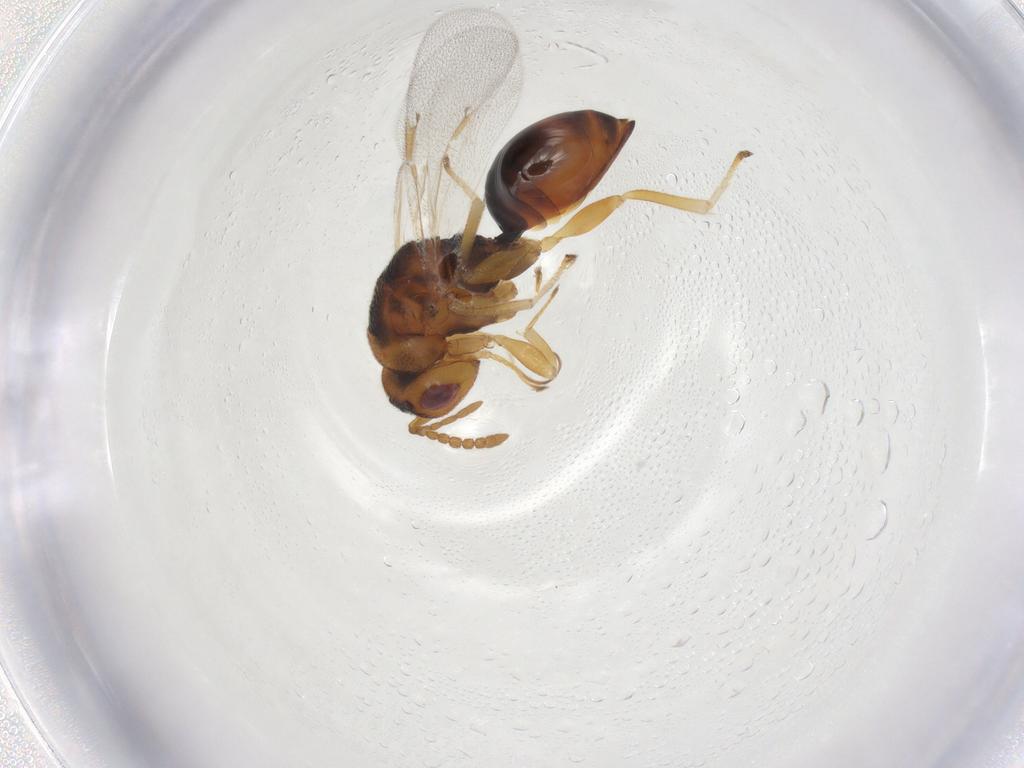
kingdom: Animalia
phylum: Arthropoda
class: Insecta
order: Hymenoptera
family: Eurytomidae
